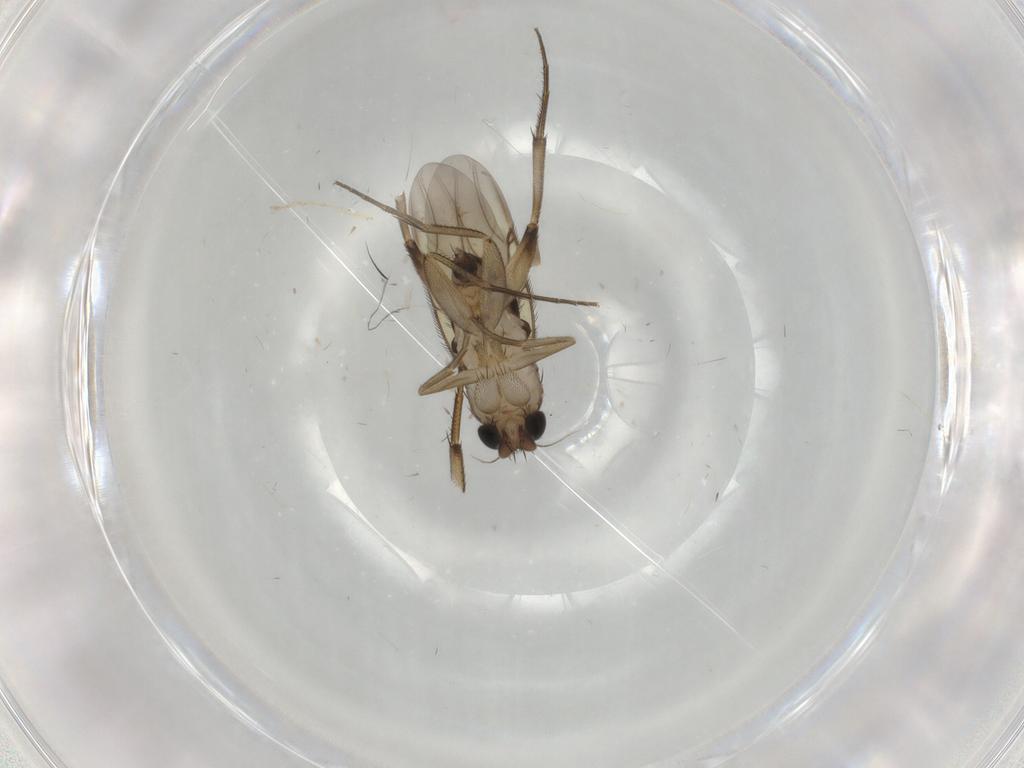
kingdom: Animalia
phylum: Arthropoda
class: Insecta
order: Diptera
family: Phoridae
